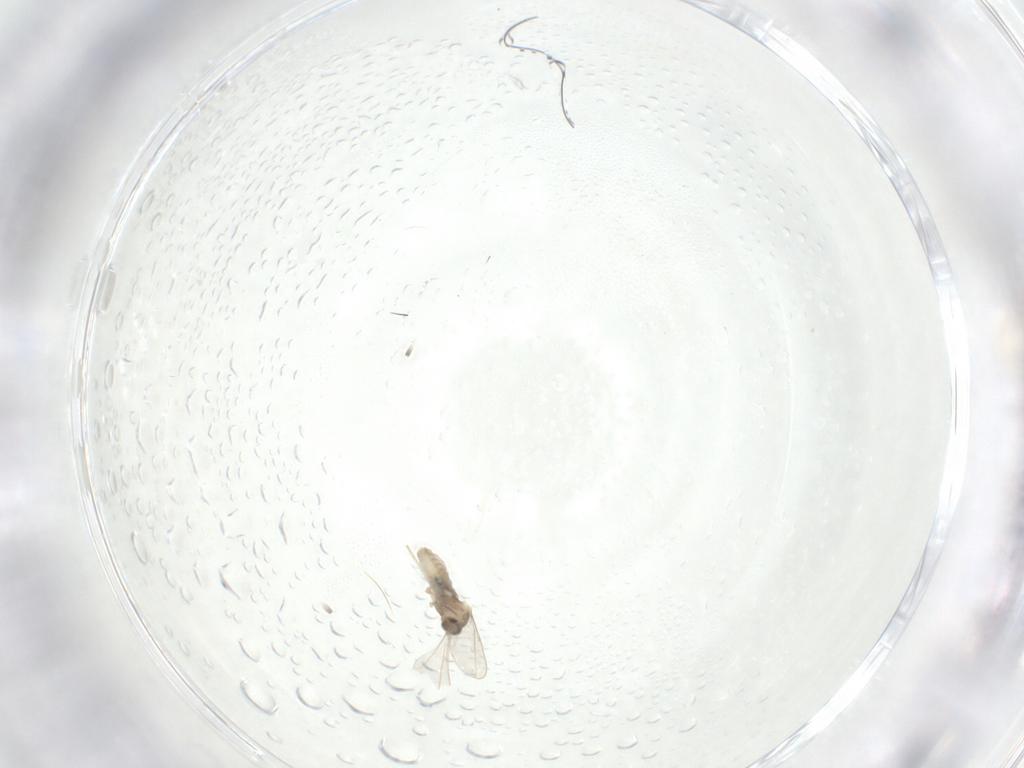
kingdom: Animalia
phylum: Arthropoda
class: Insecta
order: Diptera
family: Cecidomyiidae
